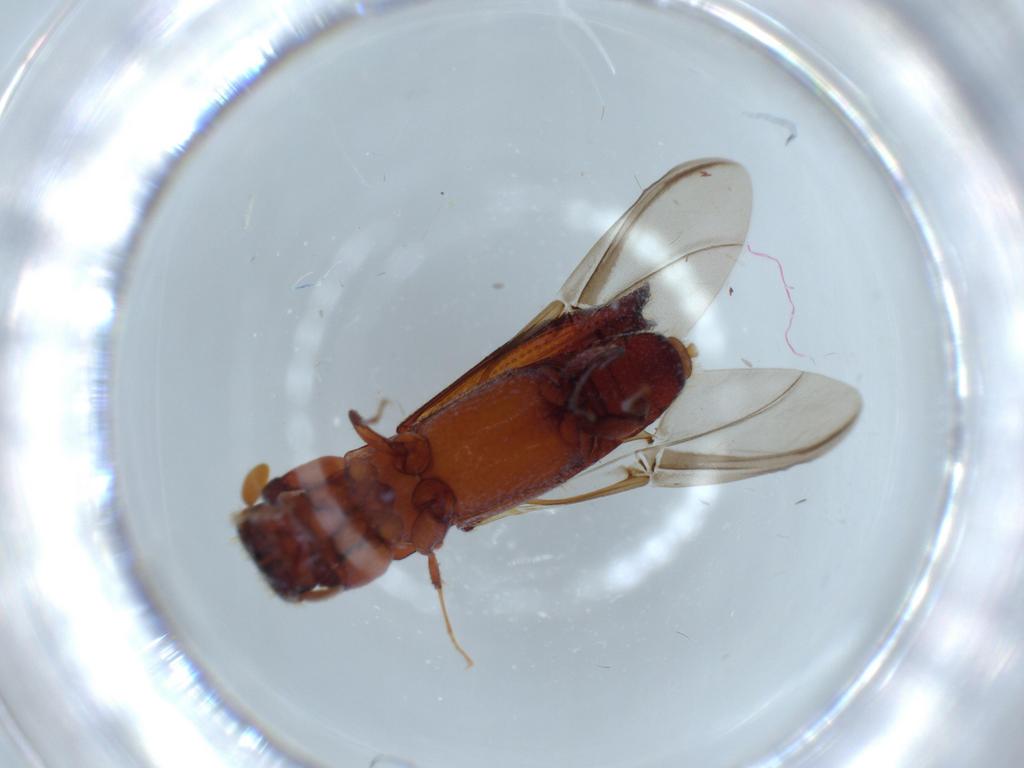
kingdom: Animalia
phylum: Arthropoda
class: Insecta
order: Coleoptera
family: Curculionidae
